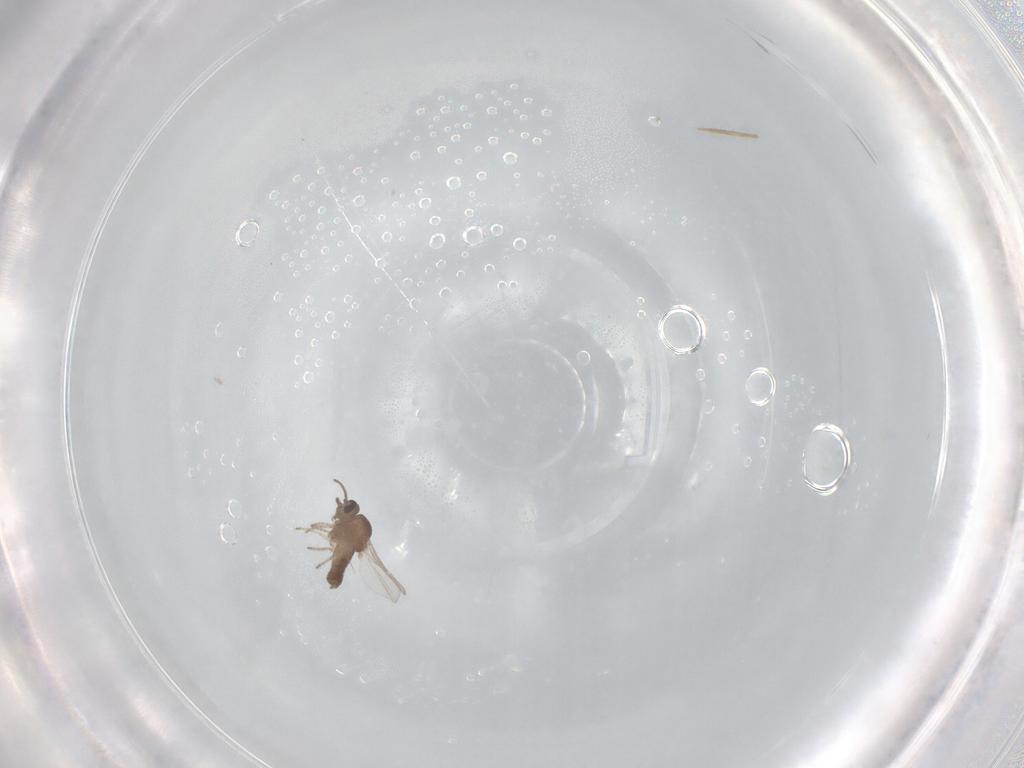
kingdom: Animalia
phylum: Arthropoda
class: Insecta
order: Diptera
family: Ceratopogonidae
